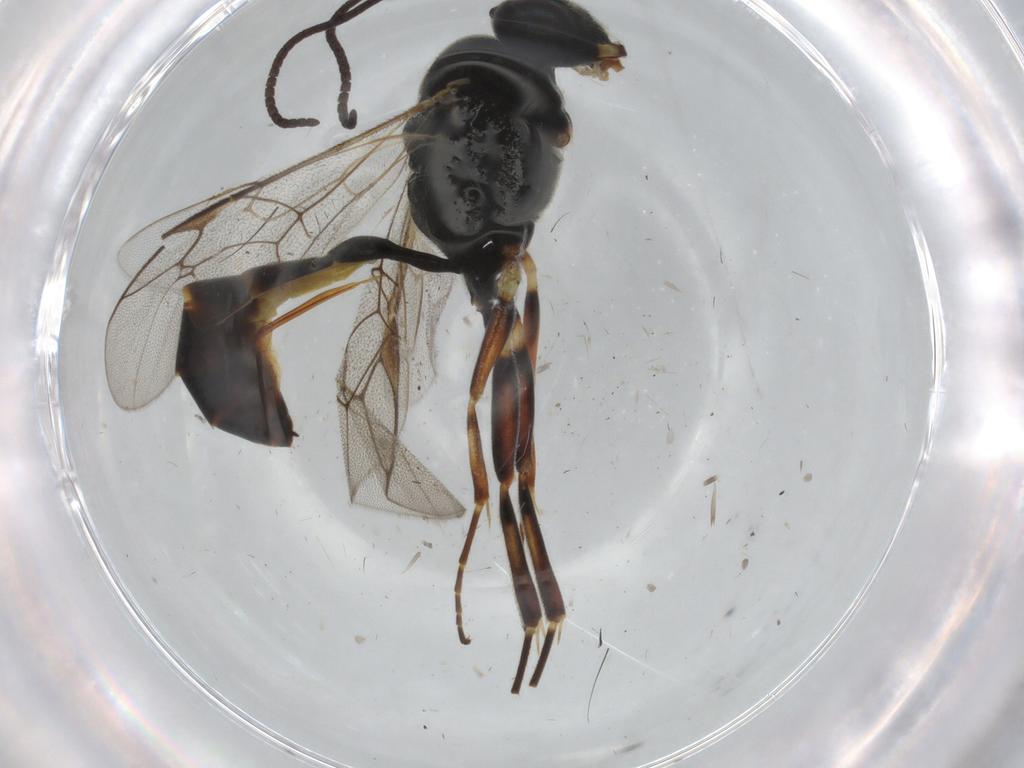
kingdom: Animalia
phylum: Arthropoda
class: Insecta
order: Hymenoptera
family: Ichneumonidae
